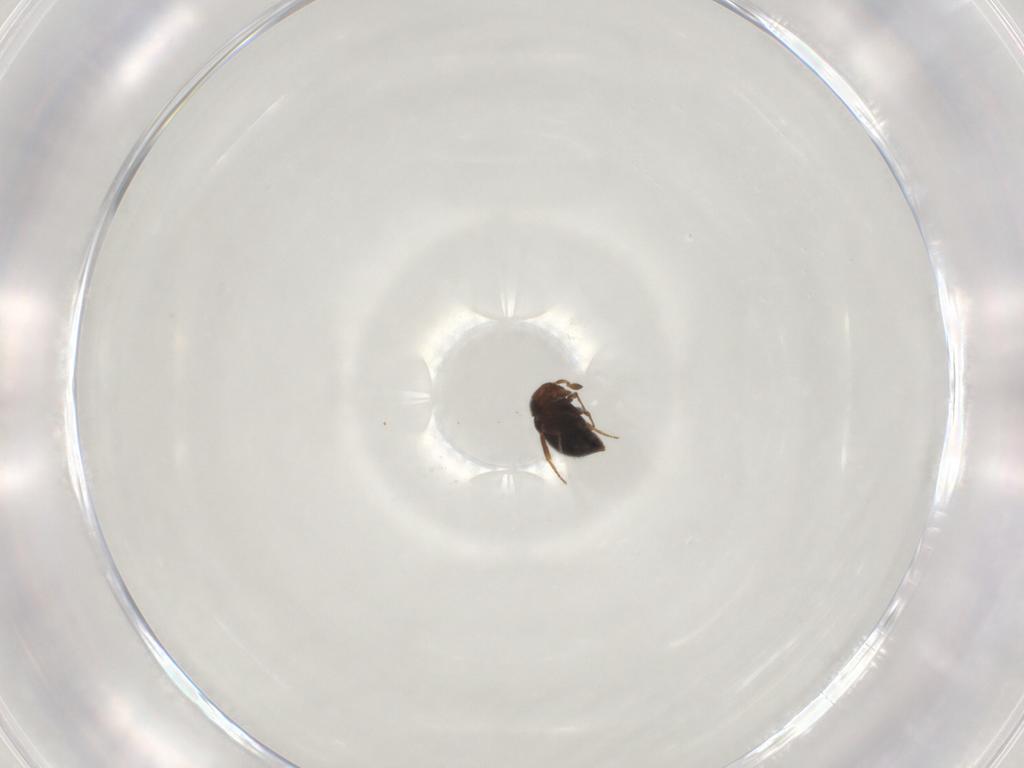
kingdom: Animalia
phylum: Arthropoda
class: Insecta
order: Hymenoptera
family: Scelionidae
